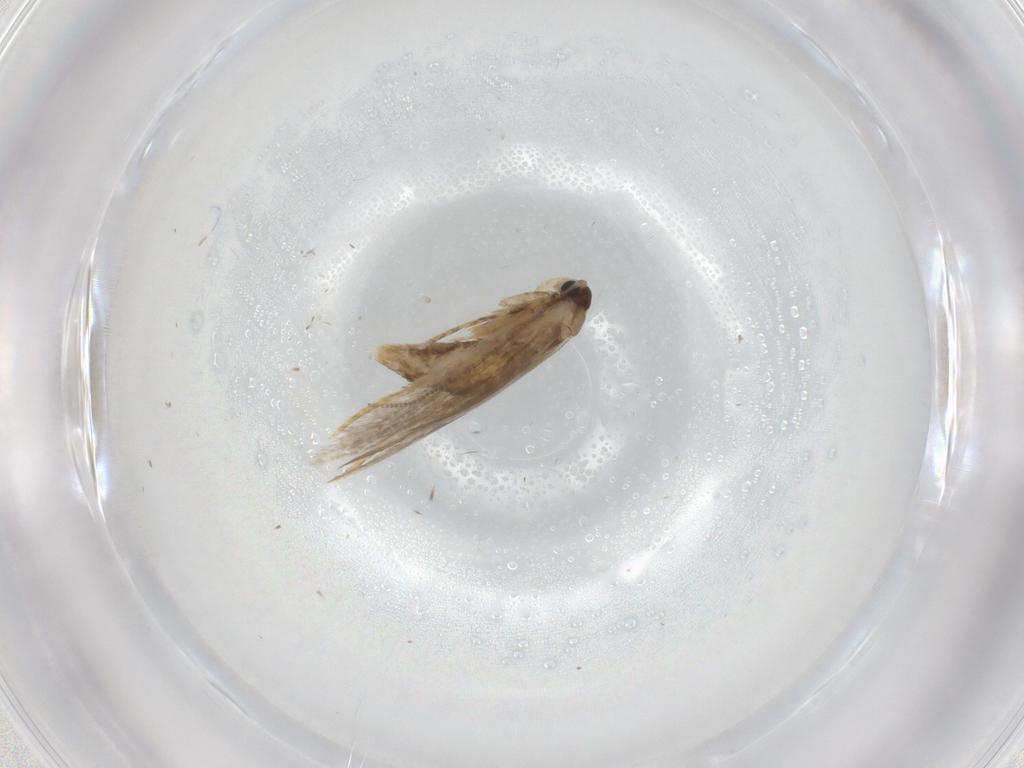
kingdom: Animalia
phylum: Arthropoda
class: Insecta
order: Lepidoptera
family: Tineidae
